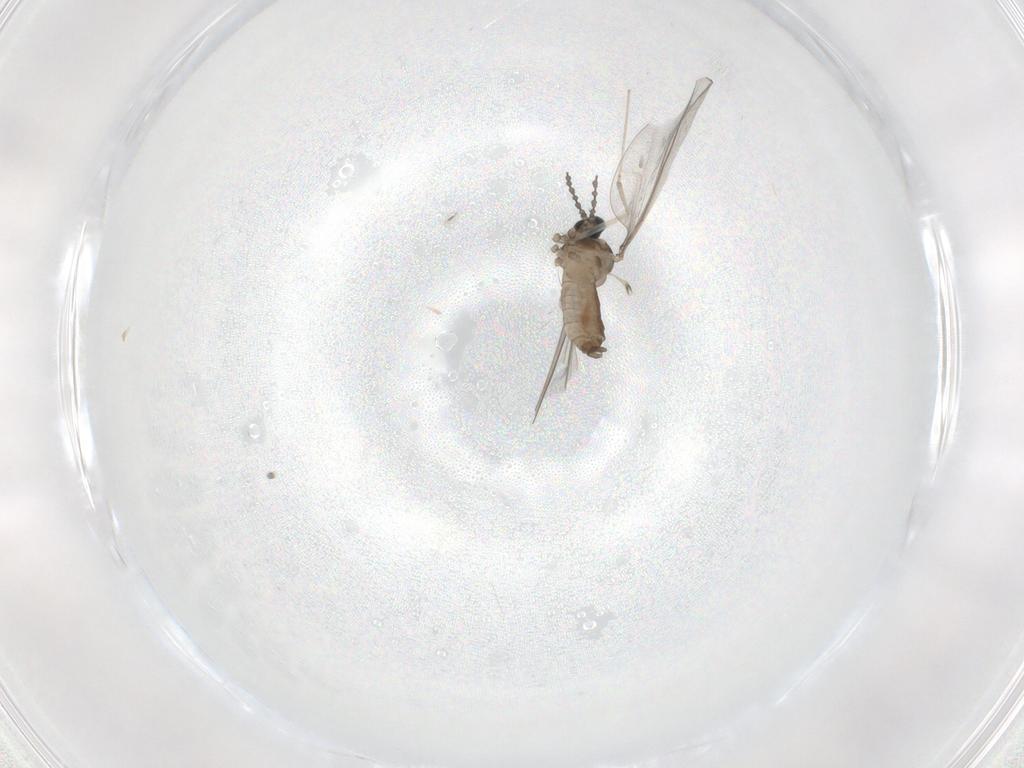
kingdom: Animalia
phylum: Arthropoda
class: Insecta
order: Diptera
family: Cecidomyiidae
